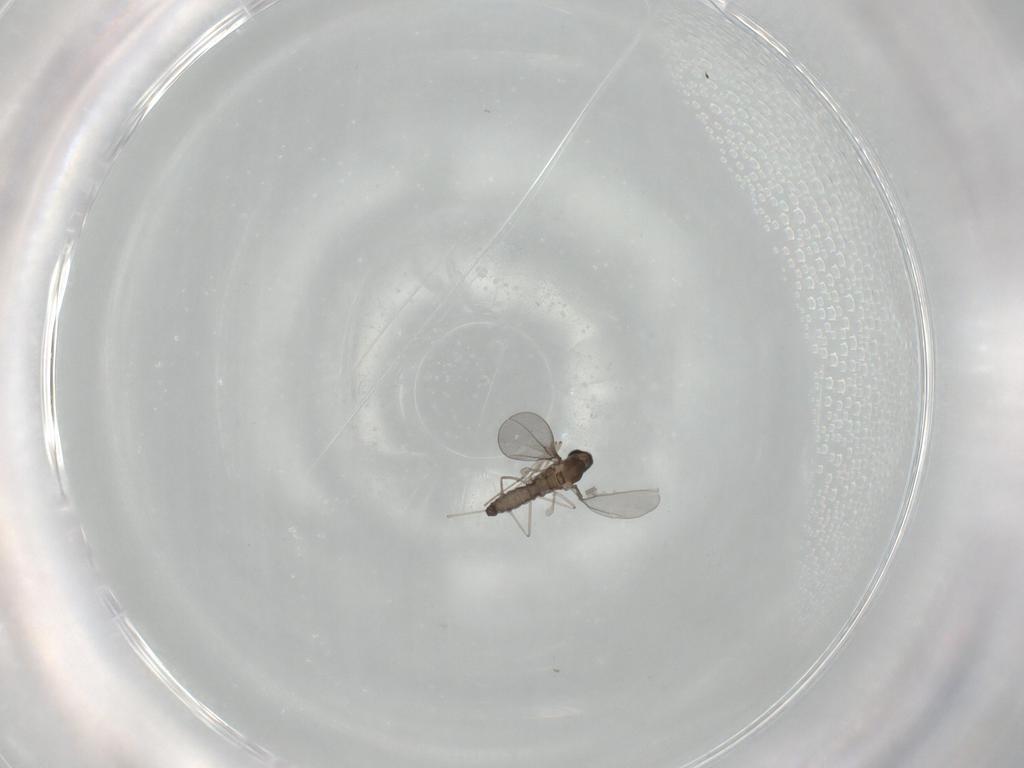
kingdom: Animalia
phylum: Arthropoda
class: Insecta
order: Diptera
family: Cecidomyiidae
